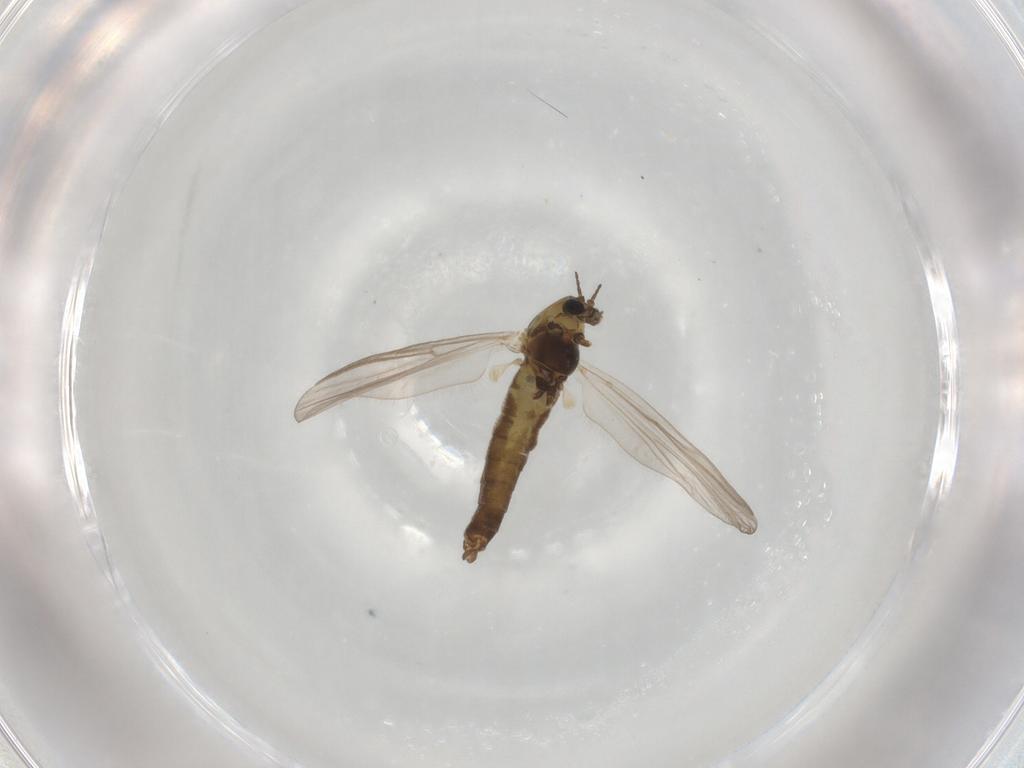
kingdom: Animalia
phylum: Arthropoda
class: Insecta
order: Diptera
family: Chironomidae
